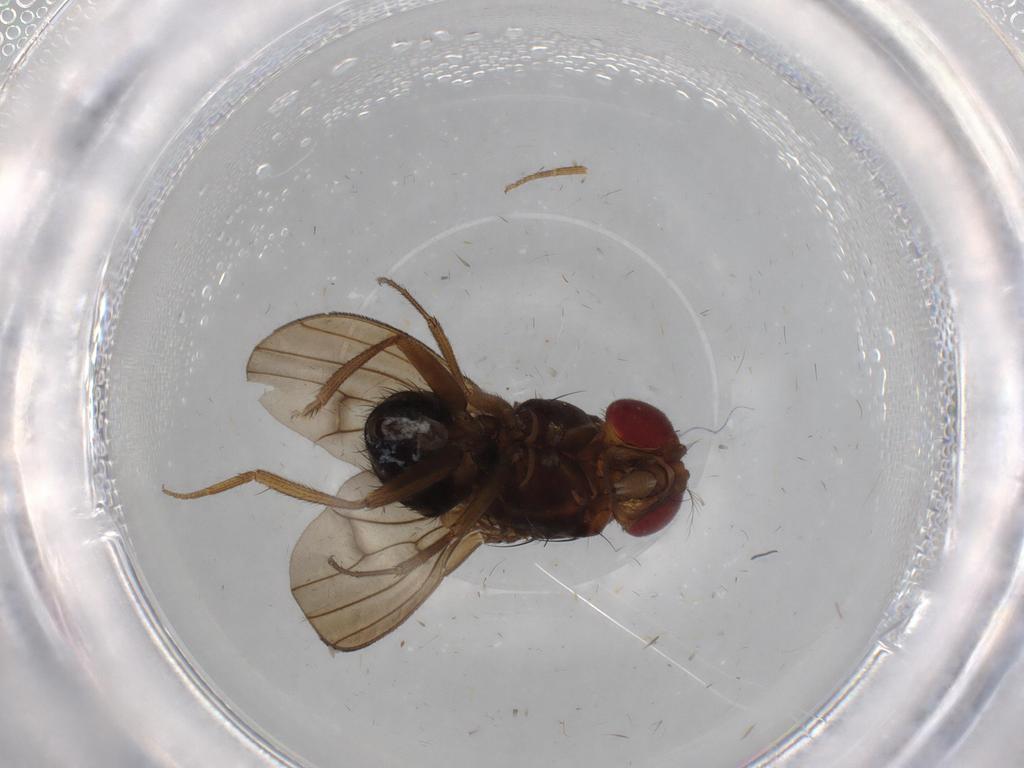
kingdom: Animalia
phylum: Arthropoda
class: Insecta
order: Diptera
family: Drosophilidae
